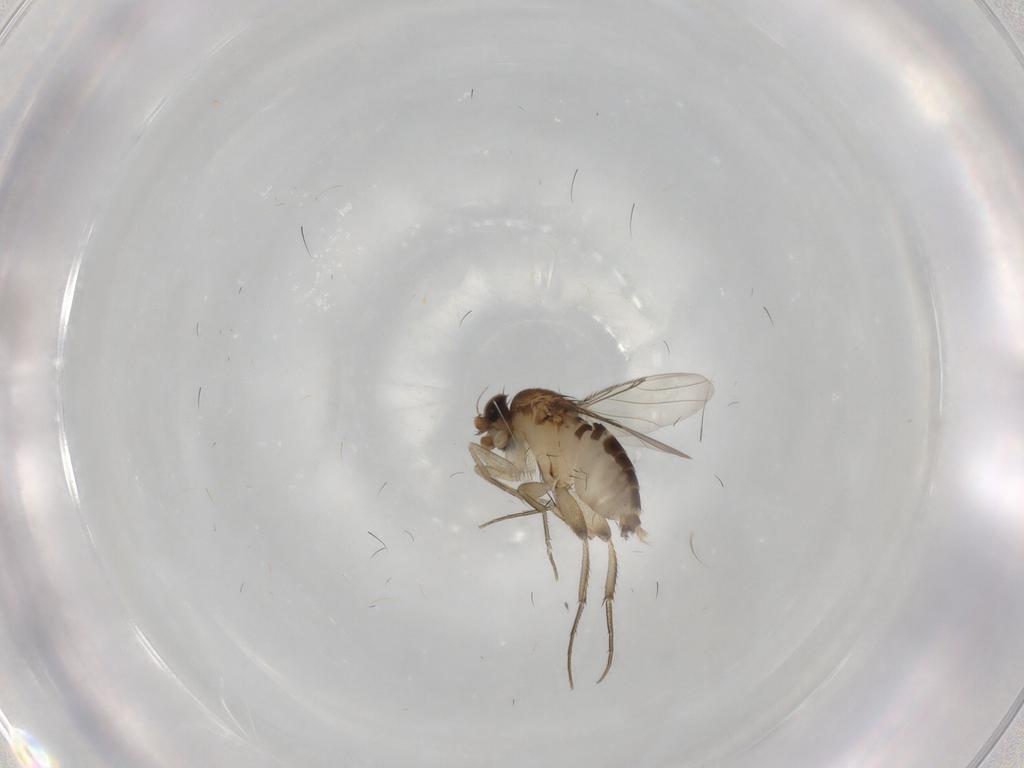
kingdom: Animalia
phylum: Arthropoda
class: Insecta
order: Diptera
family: Phoridae
